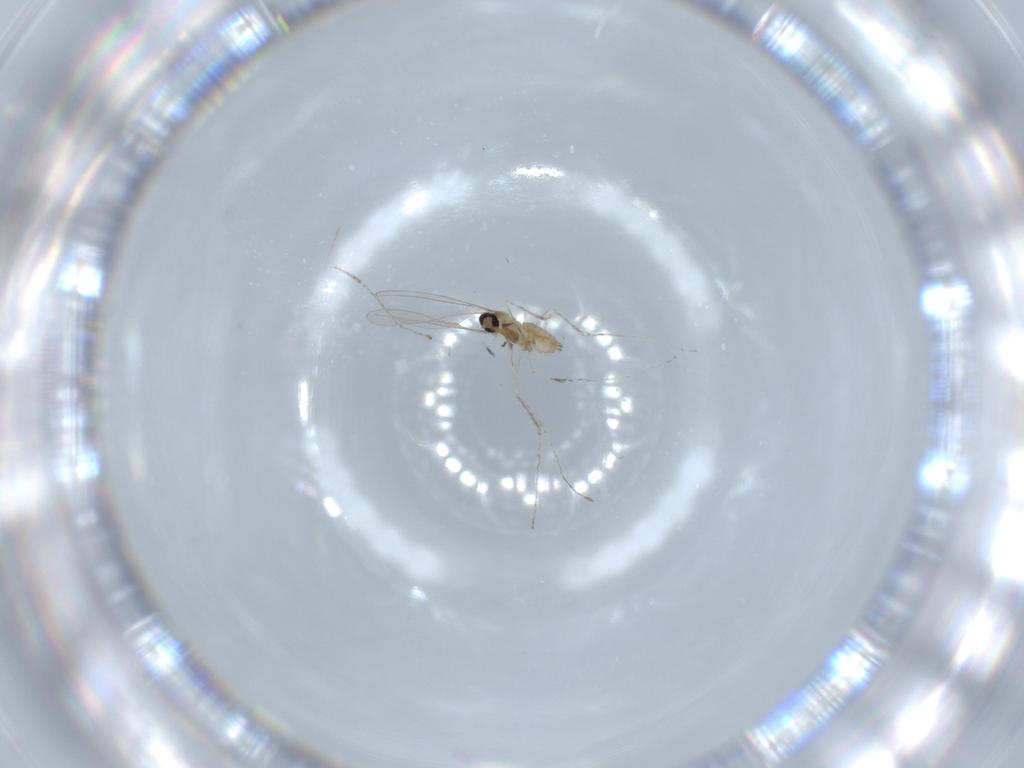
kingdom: Animalia
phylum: Arthropoda
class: Insecta
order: Diptera
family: Cecidomyiidae
